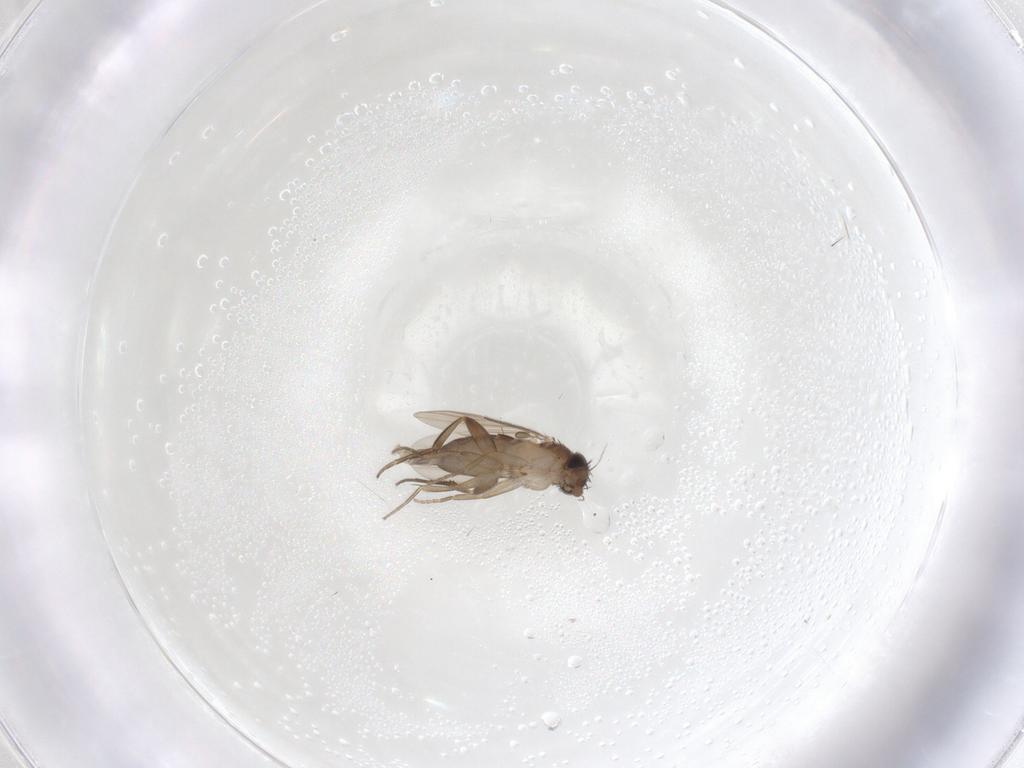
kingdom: Animalia
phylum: Arthropoda
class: Insecta
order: Diptera
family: Phoridae
